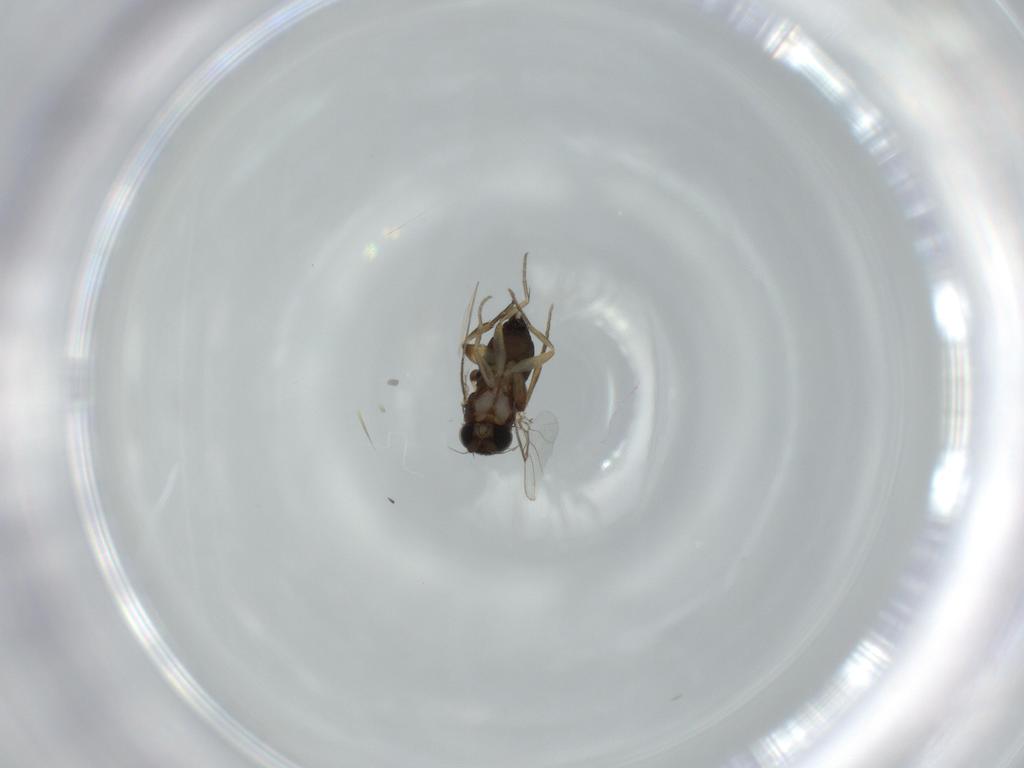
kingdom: Animalia
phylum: Arthropoda
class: Insecta
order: Diptera
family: Phoridae
